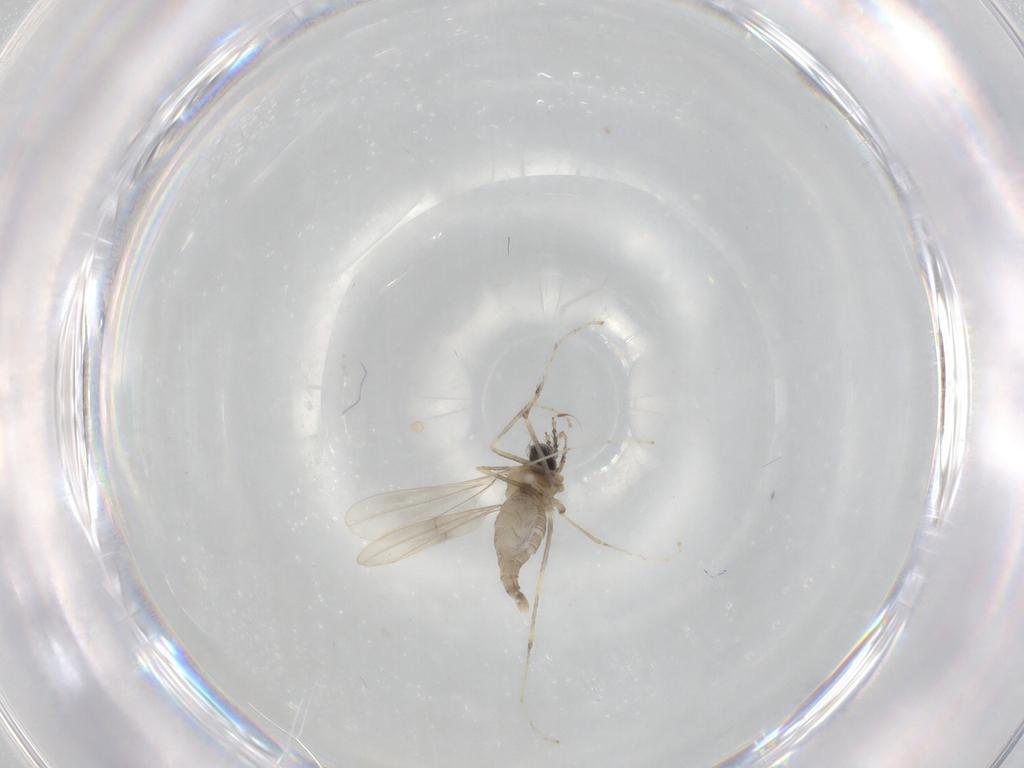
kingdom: Animalia
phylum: Arthropoda
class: Insecta
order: Diptera
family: Cecidomyiidae
